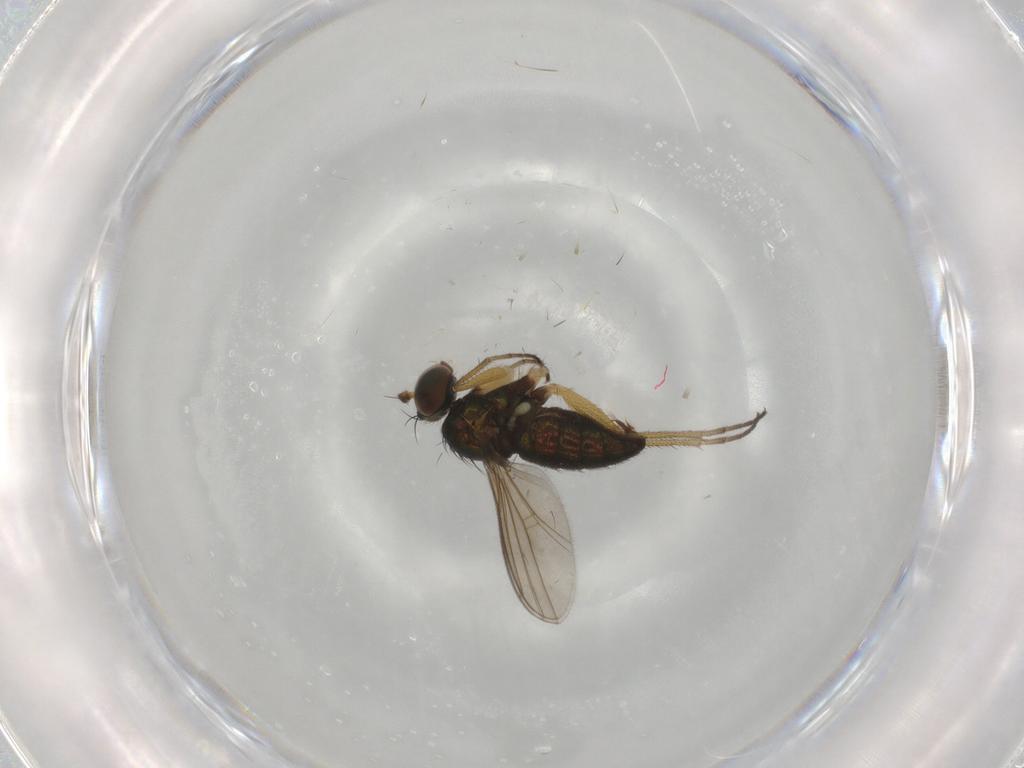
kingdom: Animalia
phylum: Arthropoda
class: Insecta
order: Diptera
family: Dolichopodidae
